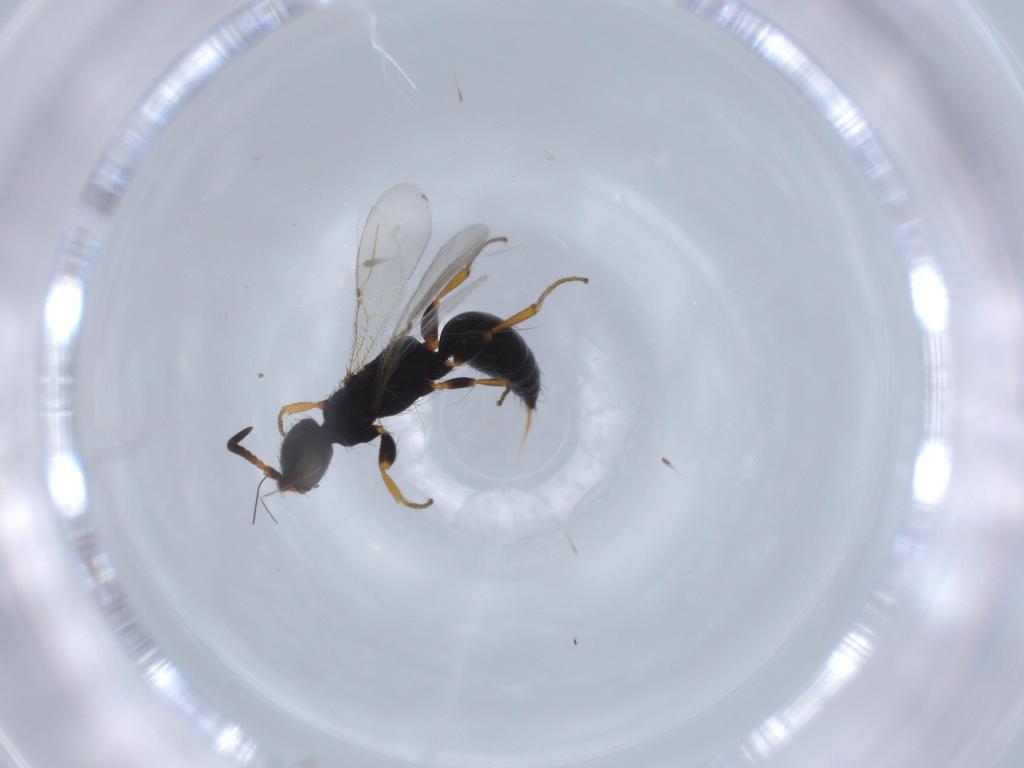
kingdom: Animalia
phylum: Arthropoda
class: Insecta
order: Hymenoptera
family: Bethylidae
